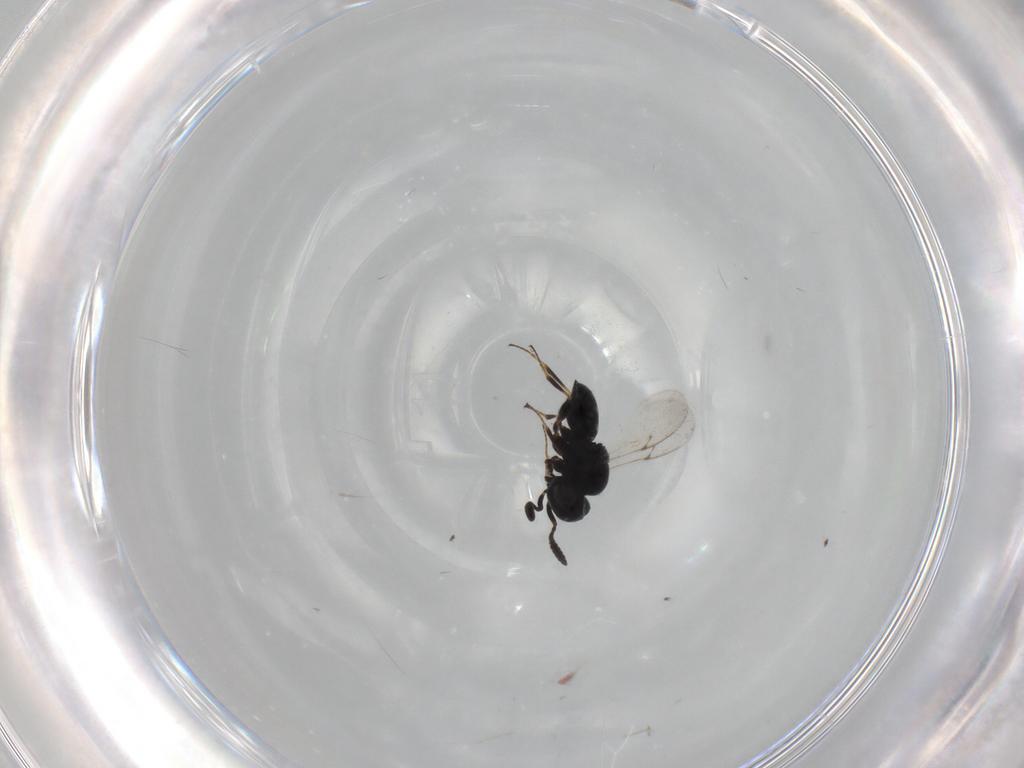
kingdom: Animalia
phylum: Arthropoda
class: Insecta
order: Hymenoptera
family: Scelionidae
